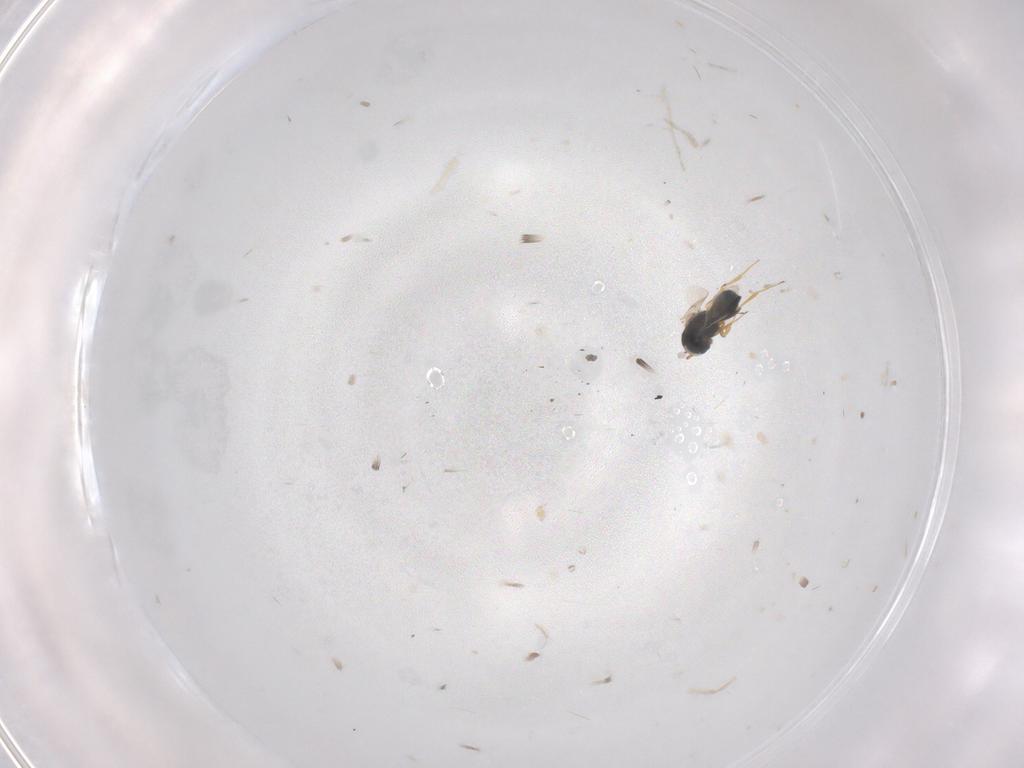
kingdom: Animalia
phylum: Arthropoda
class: Insecta
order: Hymenoptera
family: Scelionidae
